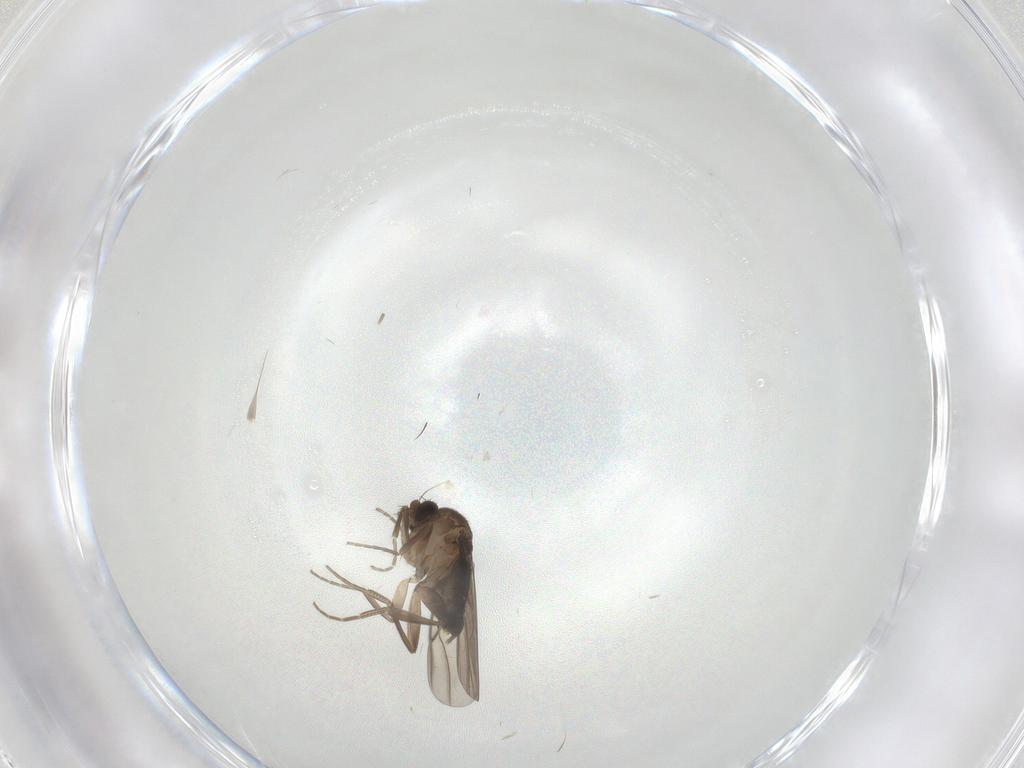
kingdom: Animalia
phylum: Arthropoda
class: Insecta
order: Diptera
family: Phoridae
